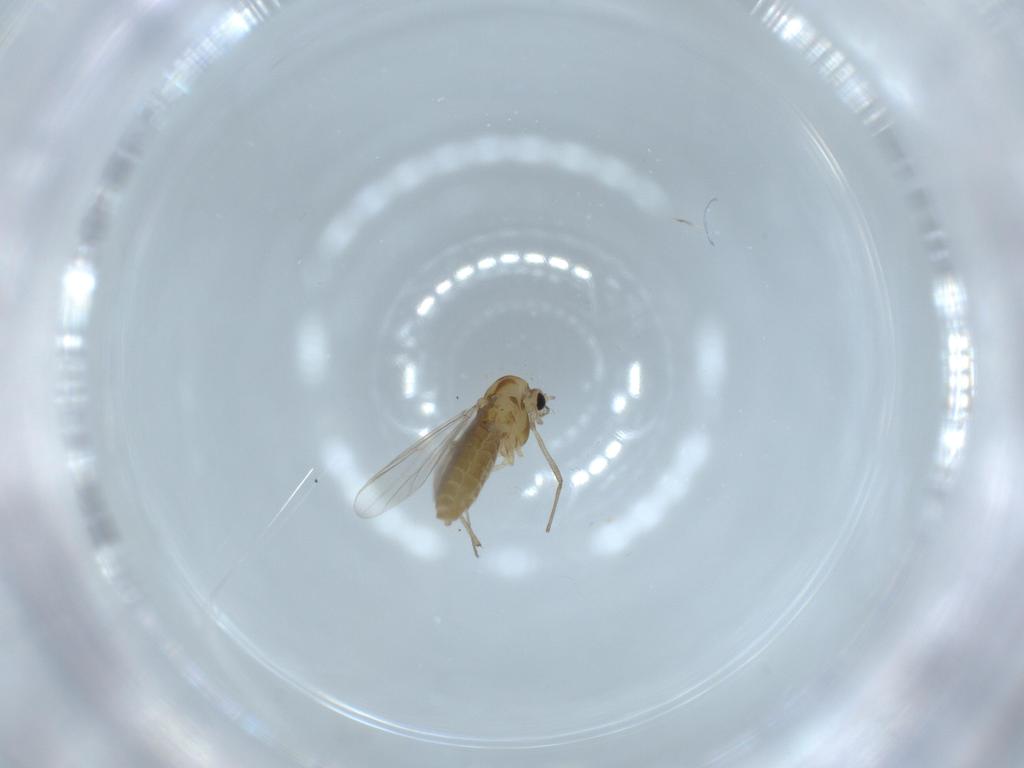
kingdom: Animalia
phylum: Arthropoda
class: Insecta
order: Diptera
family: Chironomidae
